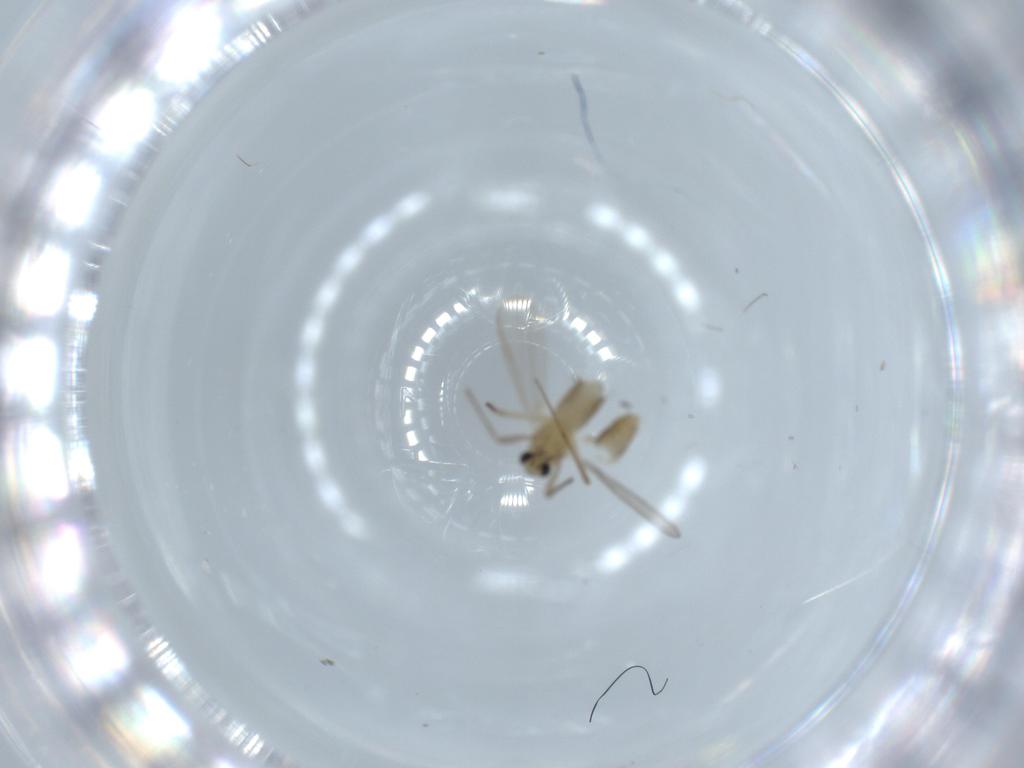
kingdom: Animalia
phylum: Arthropoda
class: Insecta
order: Diptera
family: Chironomidae
